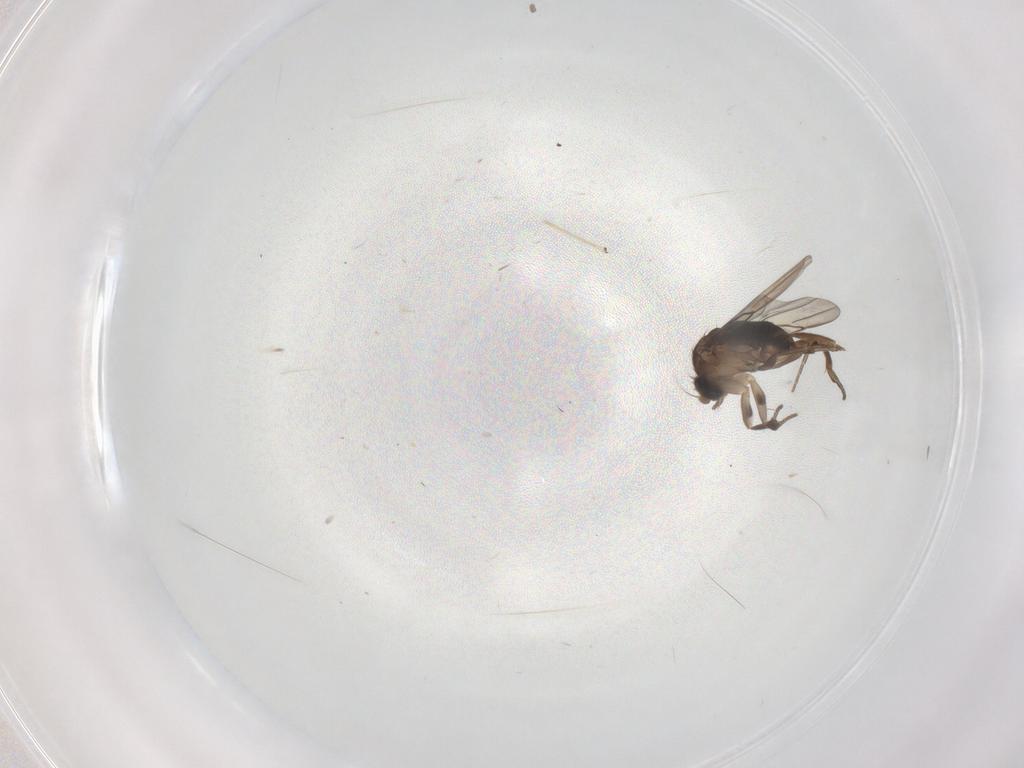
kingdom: Animalia
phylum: Arthropoda
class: Insecta
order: Diptera
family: Phoridae
